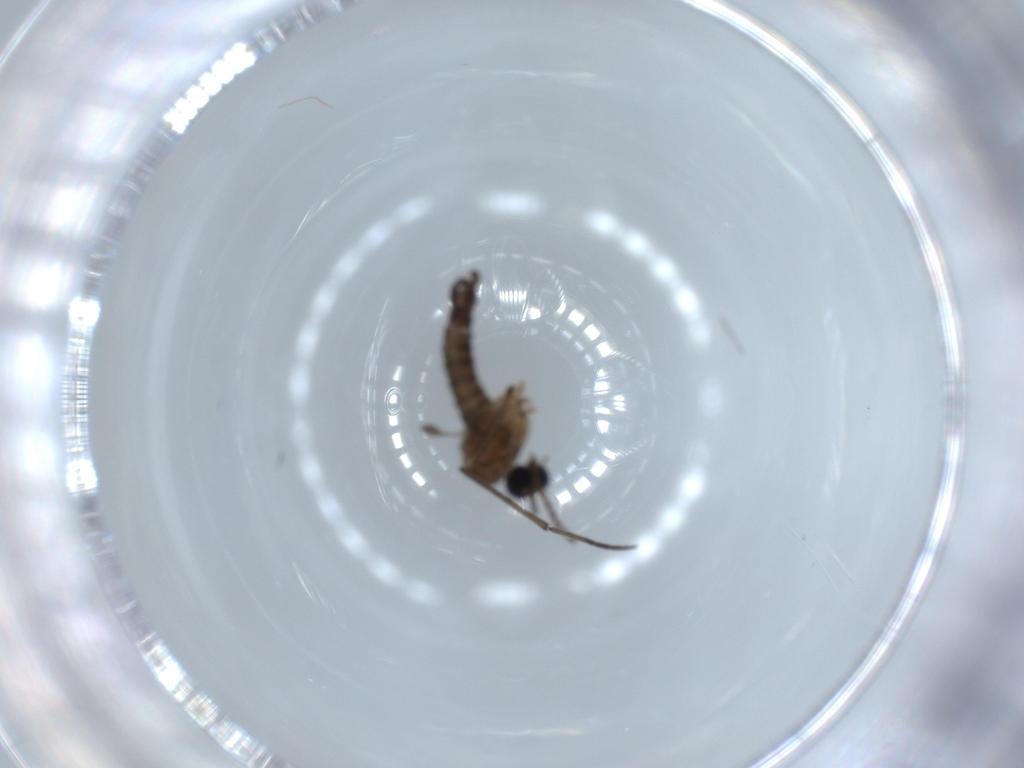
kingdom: Animalia
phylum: Arthropoda
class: Insecta
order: Diptera
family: Sciaridae
